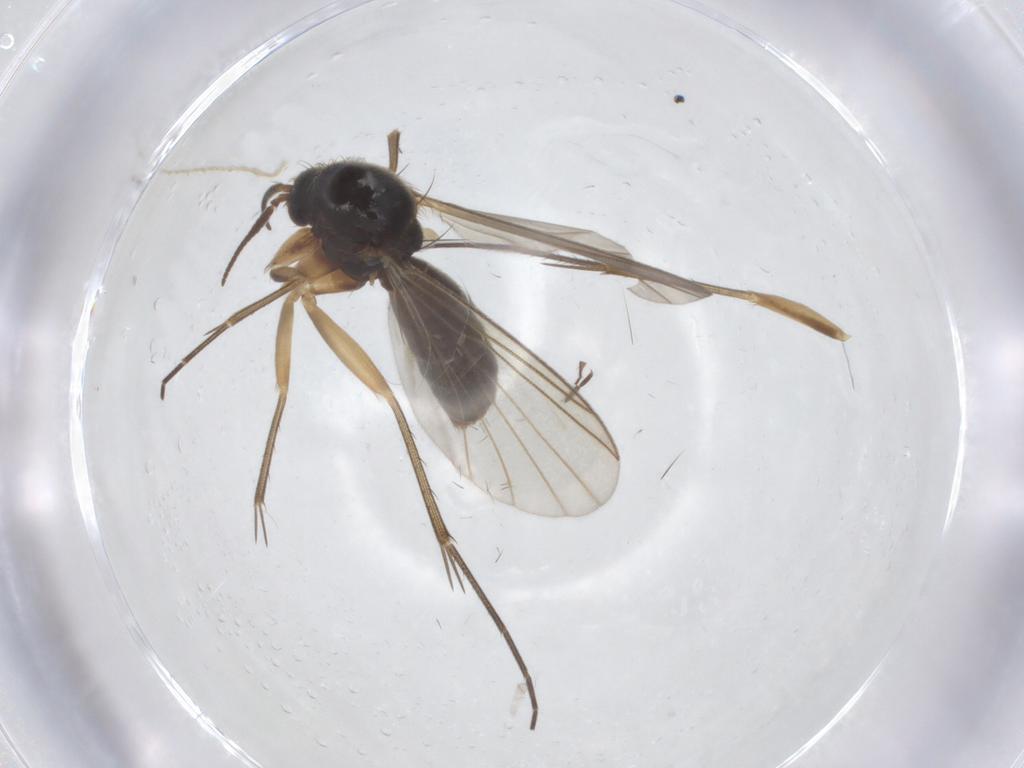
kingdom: Animalia
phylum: Arthropoda
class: Insecta
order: Diptera
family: Mycetophilidae
